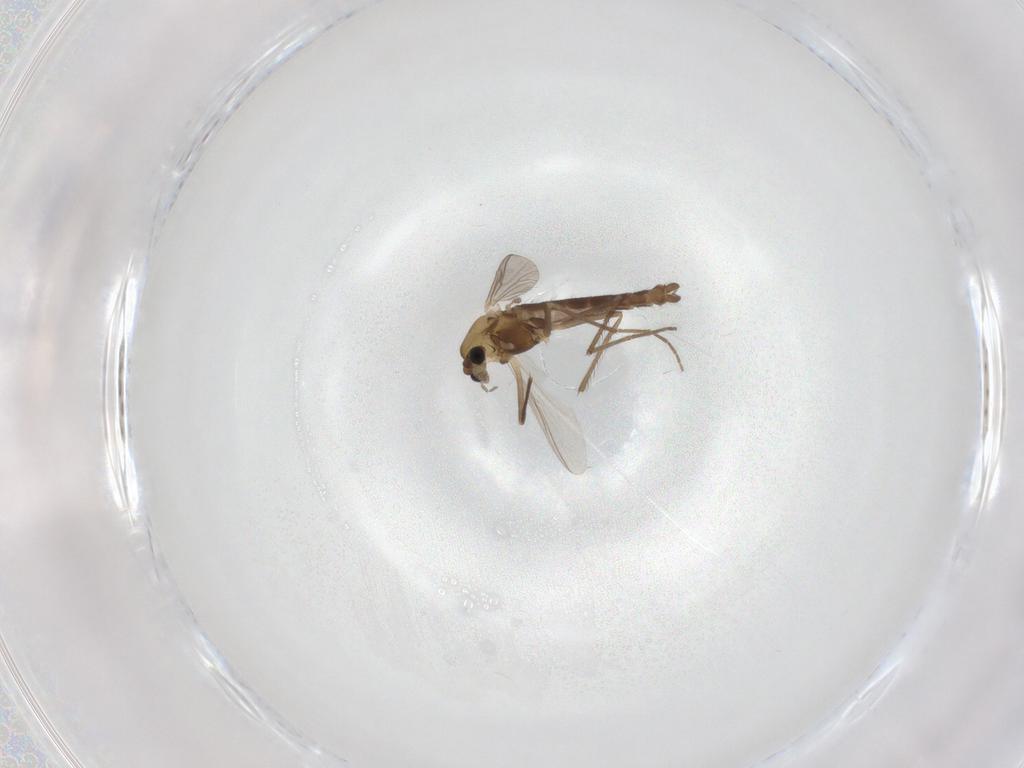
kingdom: Animalia
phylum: Arthropoda
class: Insecta
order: Diptera
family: Chironomidae
